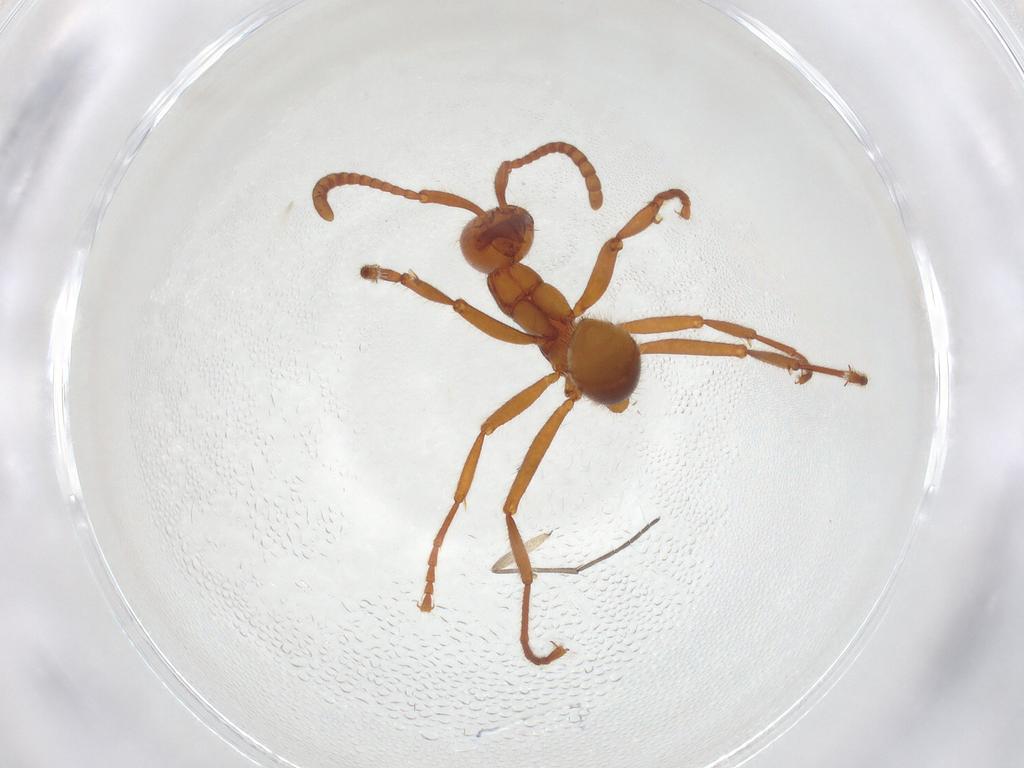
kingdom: Animalia
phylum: Arthropoda
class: Insecta
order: Hymenoptera
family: Formicidae
